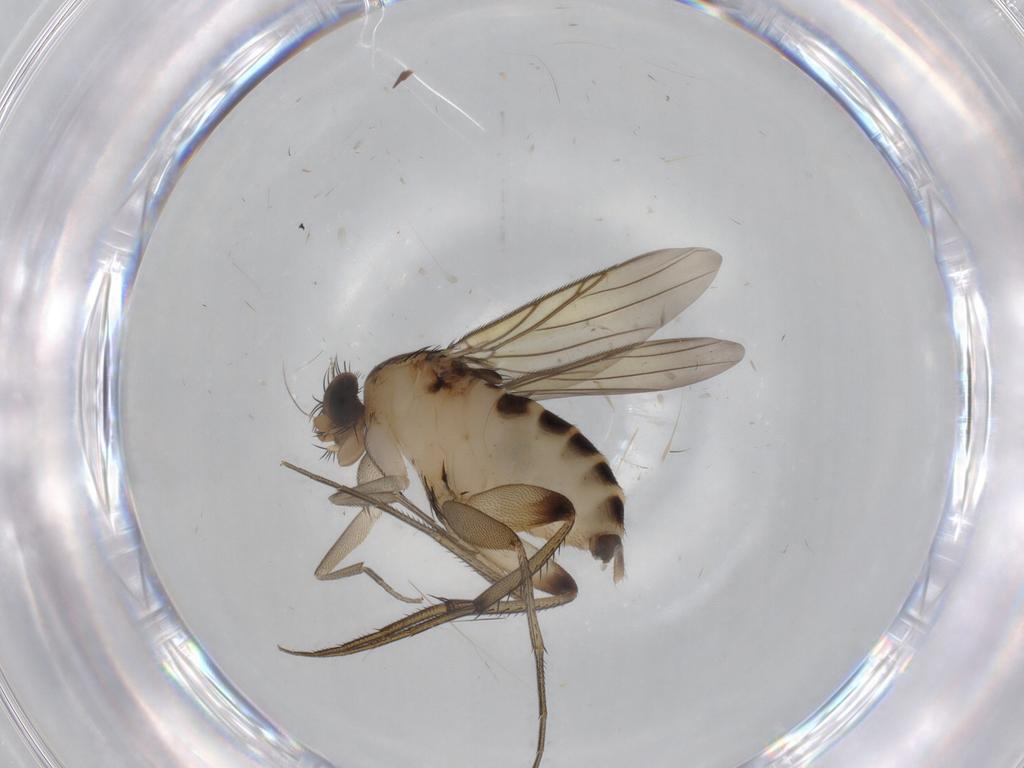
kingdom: Animalia
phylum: Arthropoda
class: Insecta
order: Diptera
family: Phoridae
